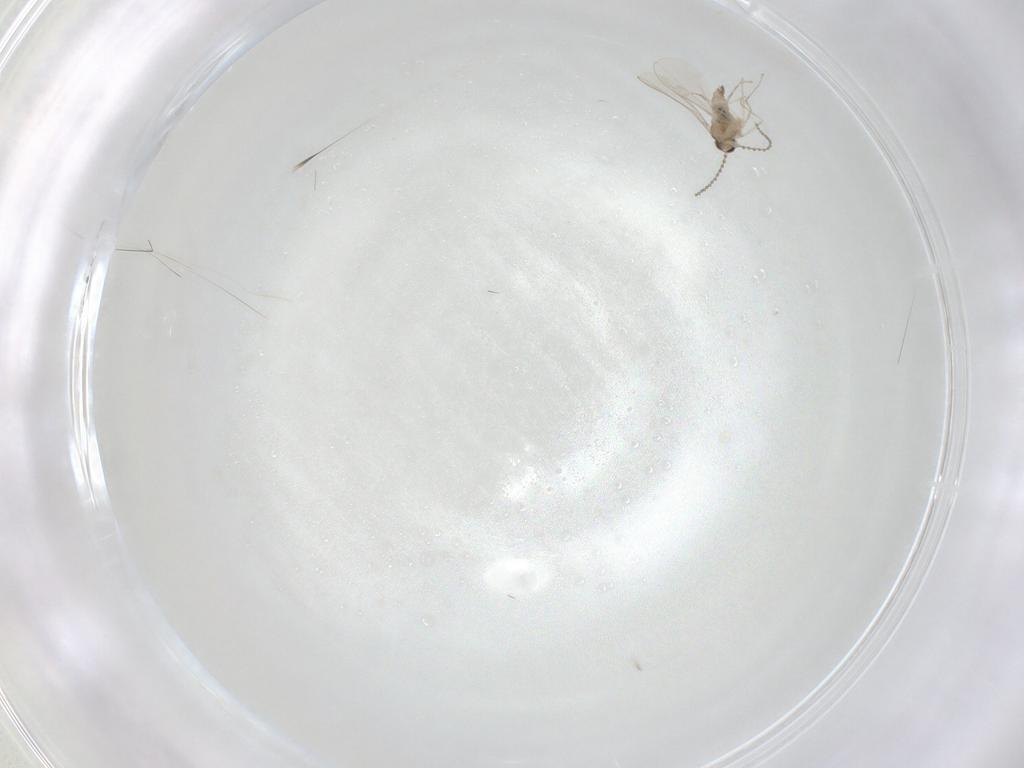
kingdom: Animalia
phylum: Arthropoda
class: Insecta
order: Diptera
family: Cecidomyiidae
